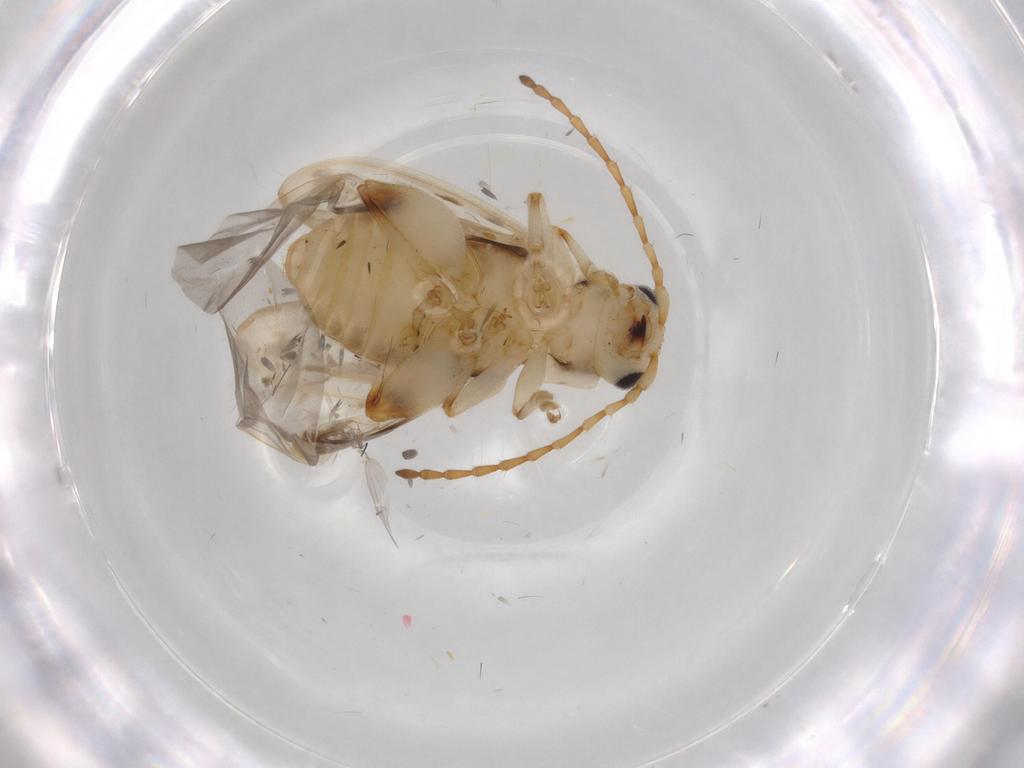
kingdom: Animalia
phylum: Arthropoda
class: Insecta
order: Coleoptera
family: Chrysomelidae
